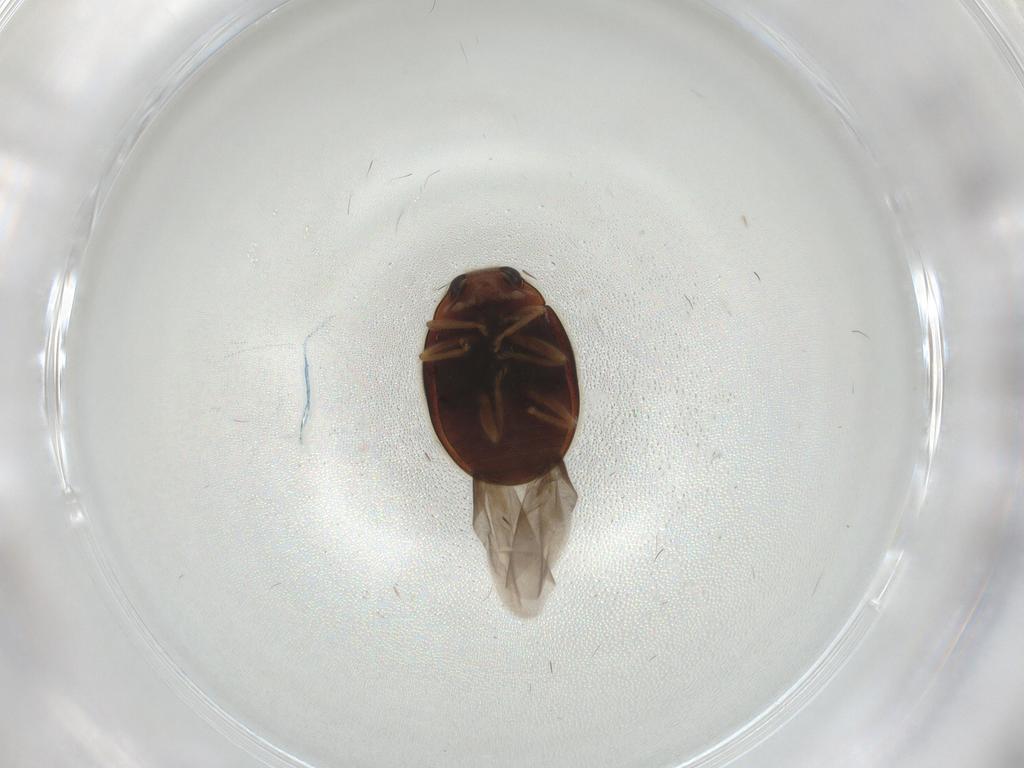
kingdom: Animalia
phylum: Arthropoda
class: Insecta
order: Coleoptera
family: Coccinellidae
